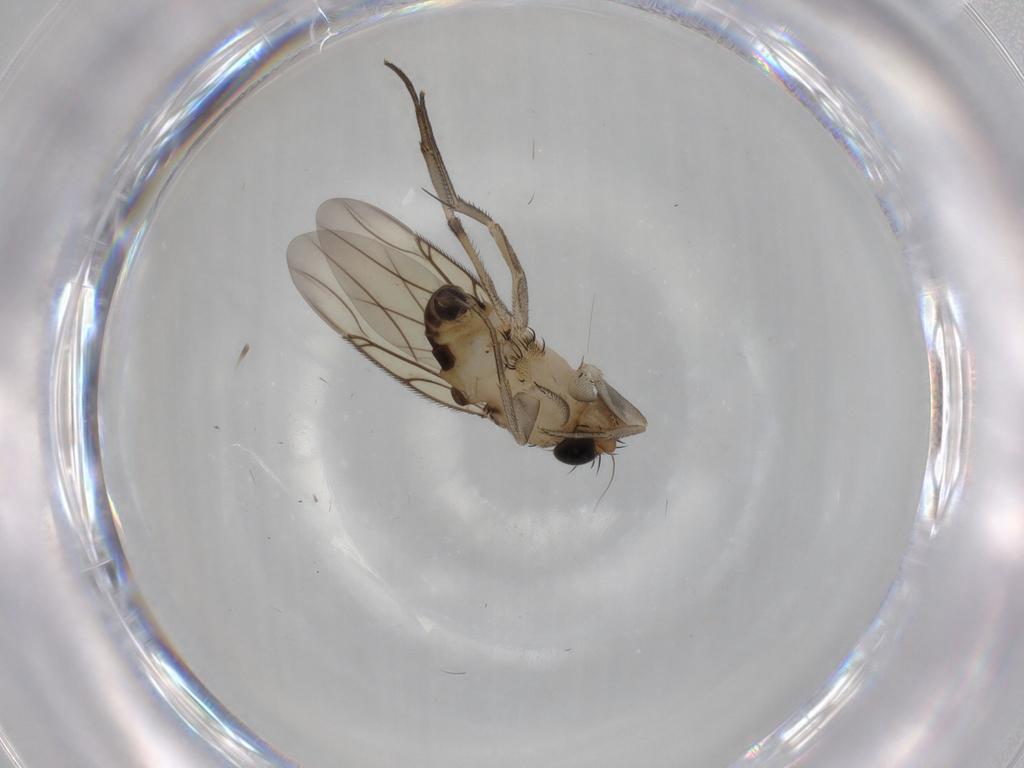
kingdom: Animalia
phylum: Arthropoda
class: Insecta
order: Diptera
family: Phoridae
